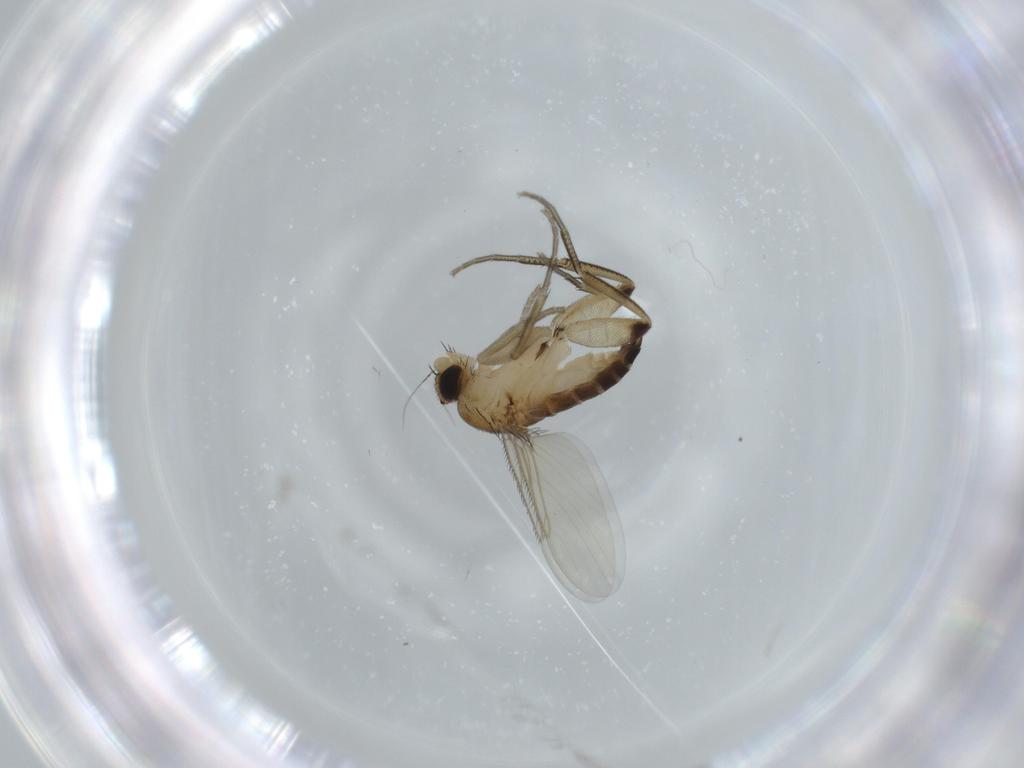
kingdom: Animalia
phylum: Arthropoda
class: Insecta
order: Diptera
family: Phoridae
